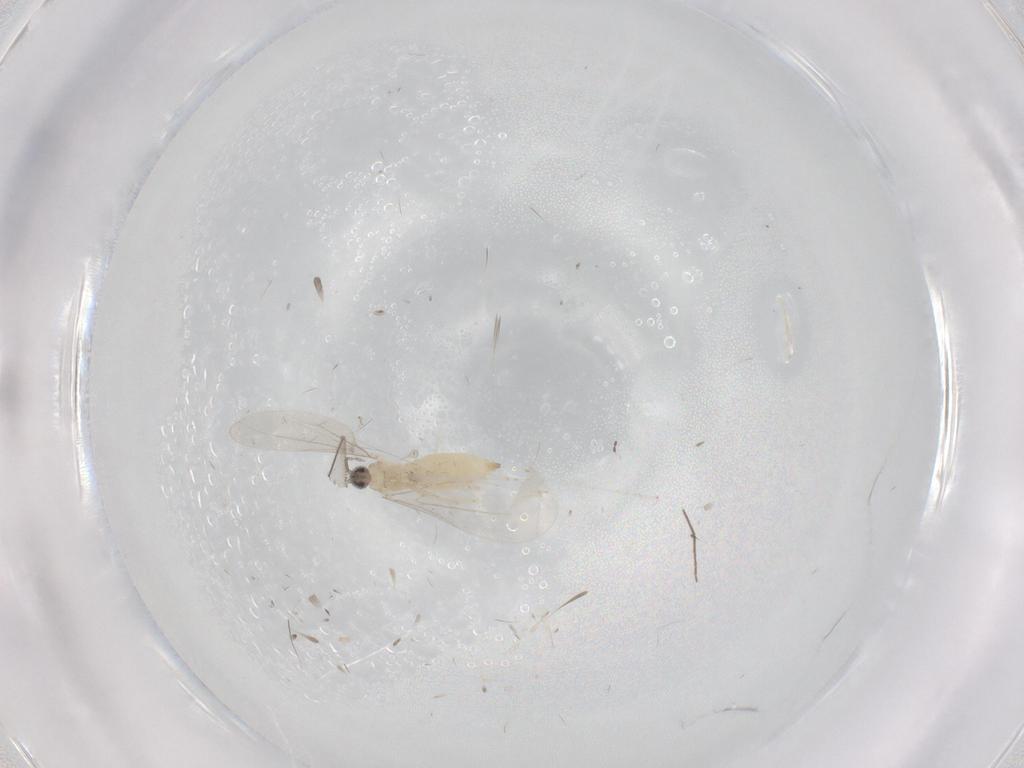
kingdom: Animalia
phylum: Arthropoda
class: Insecta
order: Diptera
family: Cecidomyiidae
